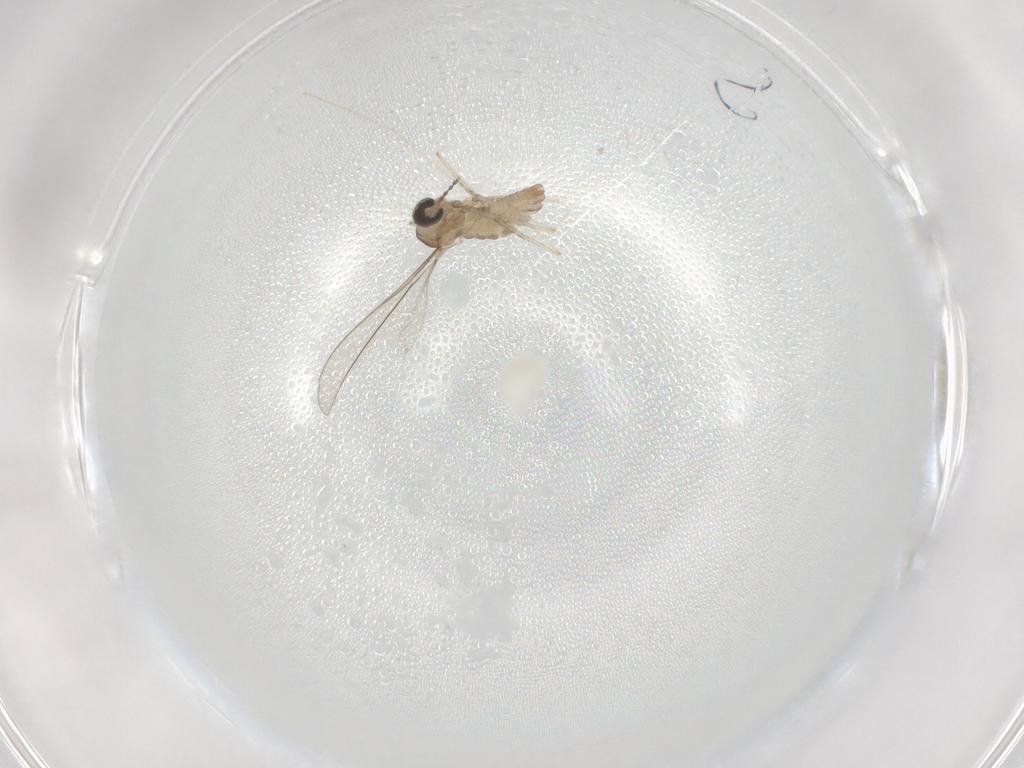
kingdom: Animalia
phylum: Arthropoda
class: Insecta
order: Diptera
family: Cecidomyiidae
